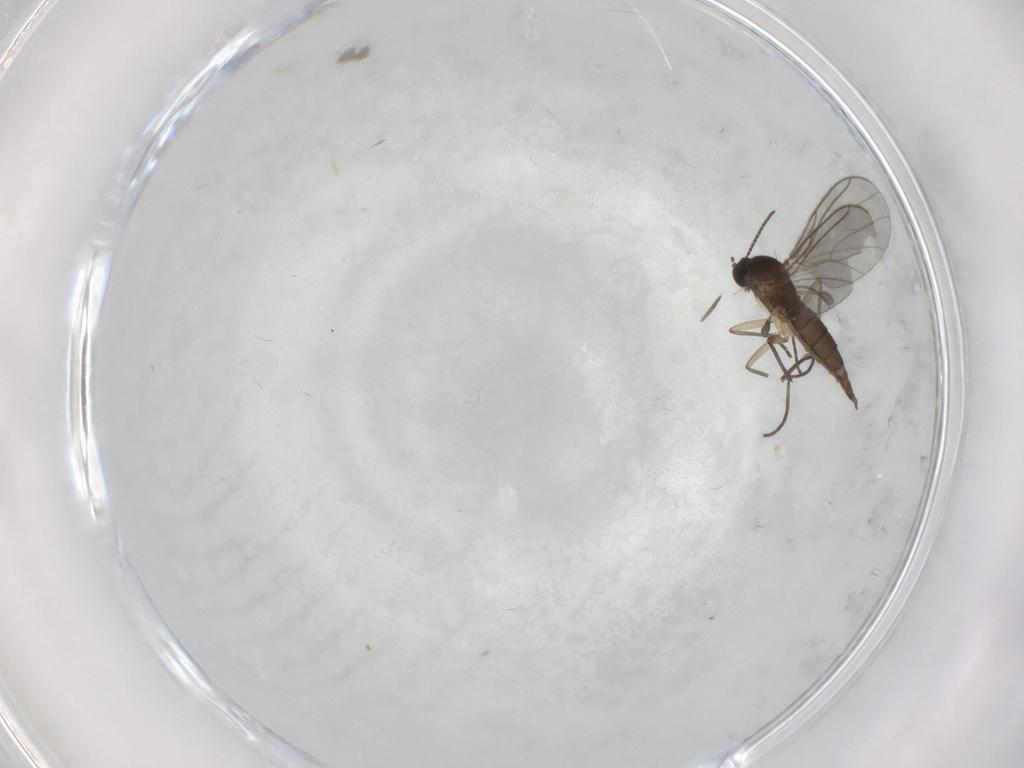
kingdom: Animalia
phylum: Arthropoda
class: Insecta
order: Diptera
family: Sciaridae
